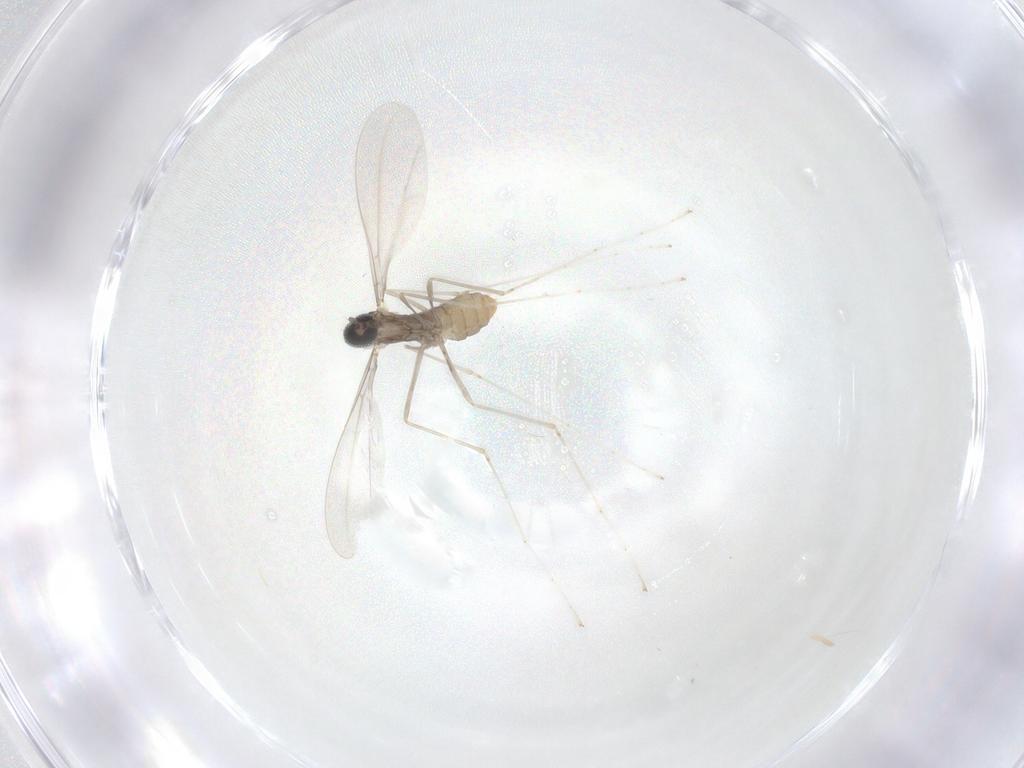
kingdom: Animalia
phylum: Arthropoda
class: Insecta
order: Diptera
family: Cecidomyiidae
